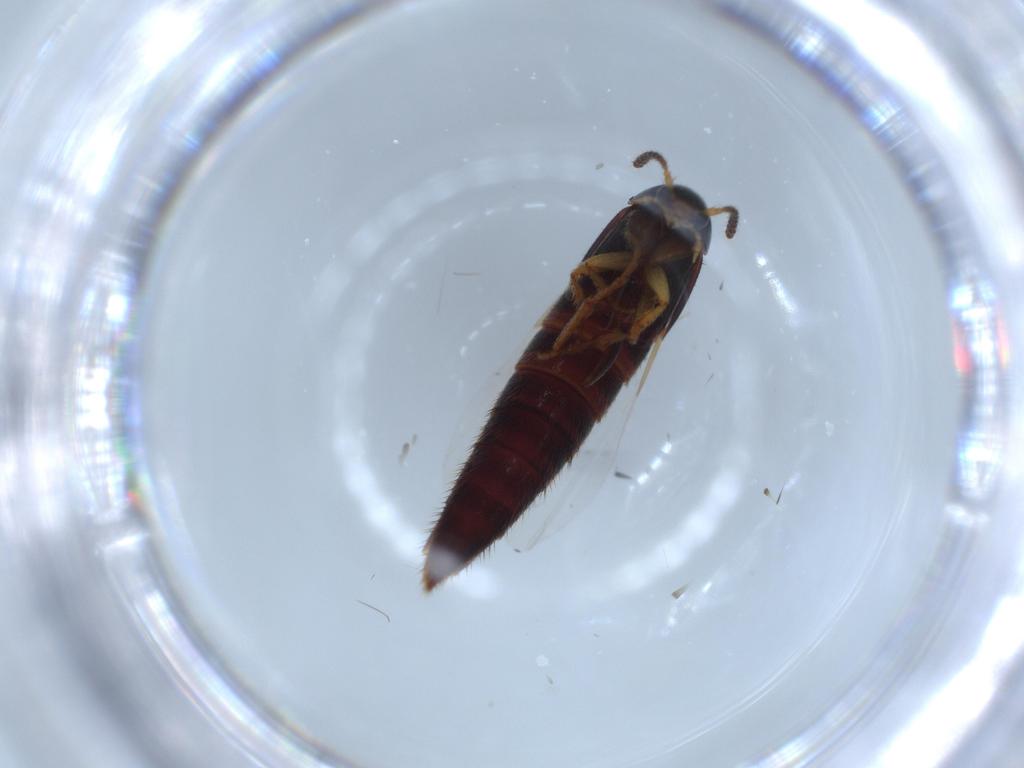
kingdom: Animalia
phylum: Arthropoda
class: Insecta
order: Coleoptera
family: Staphylinidae
